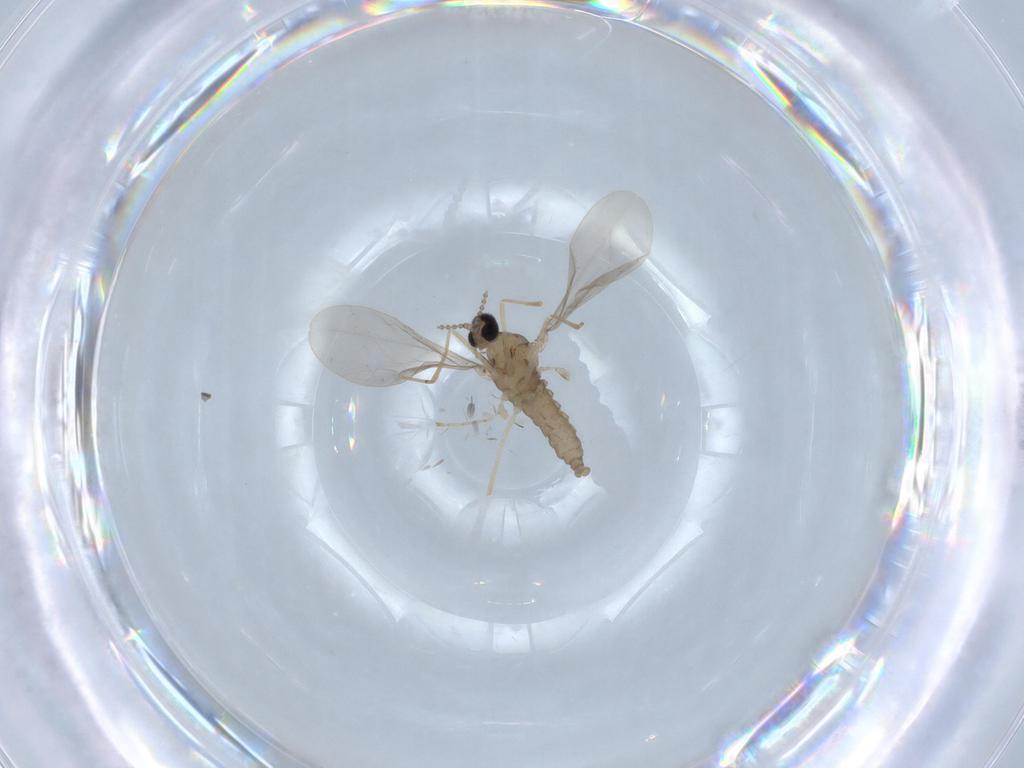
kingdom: Animalia
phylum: Arthropoda
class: Insecta
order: Diptera
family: Cecidomyiidae
